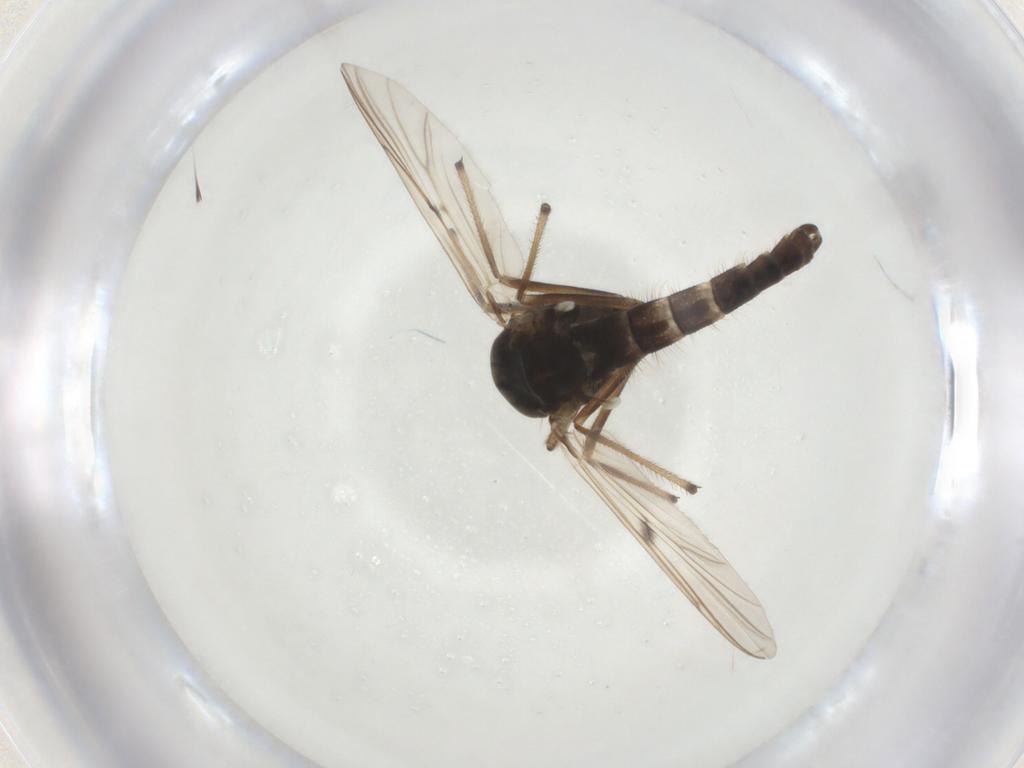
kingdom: Animalia
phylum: Arthropoda
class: Insecta
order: Diptera
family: Chironomidae
